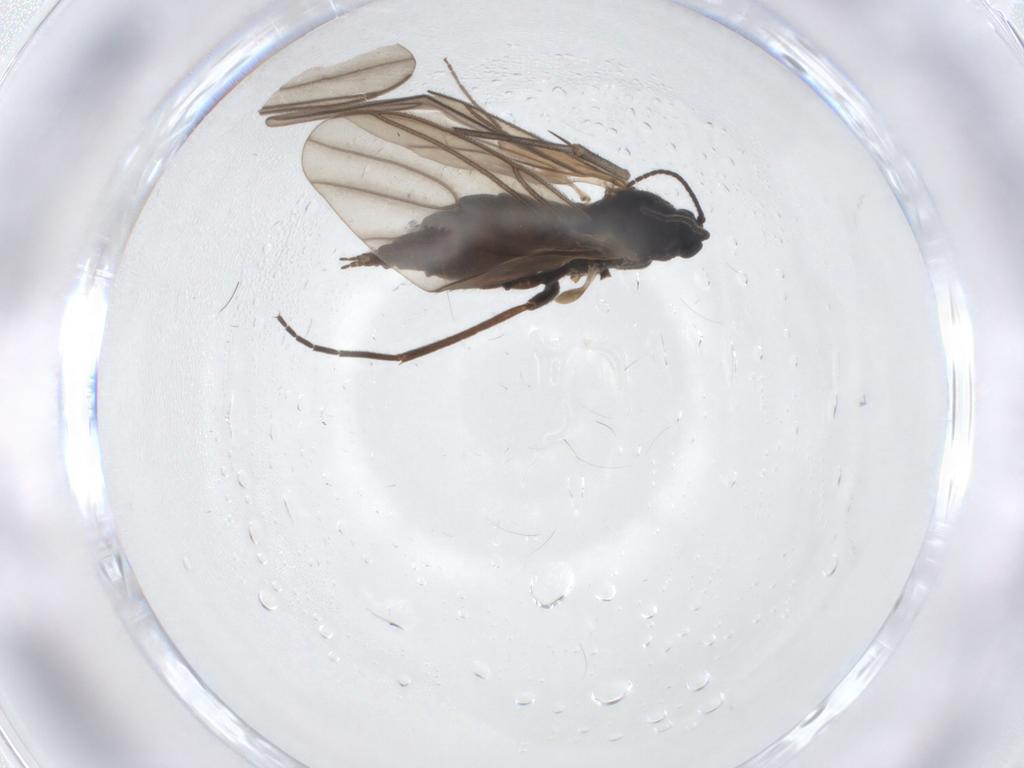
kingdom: Animalia
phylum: Arthropoda
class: Insecta
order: Diptera
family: Sciaridae
